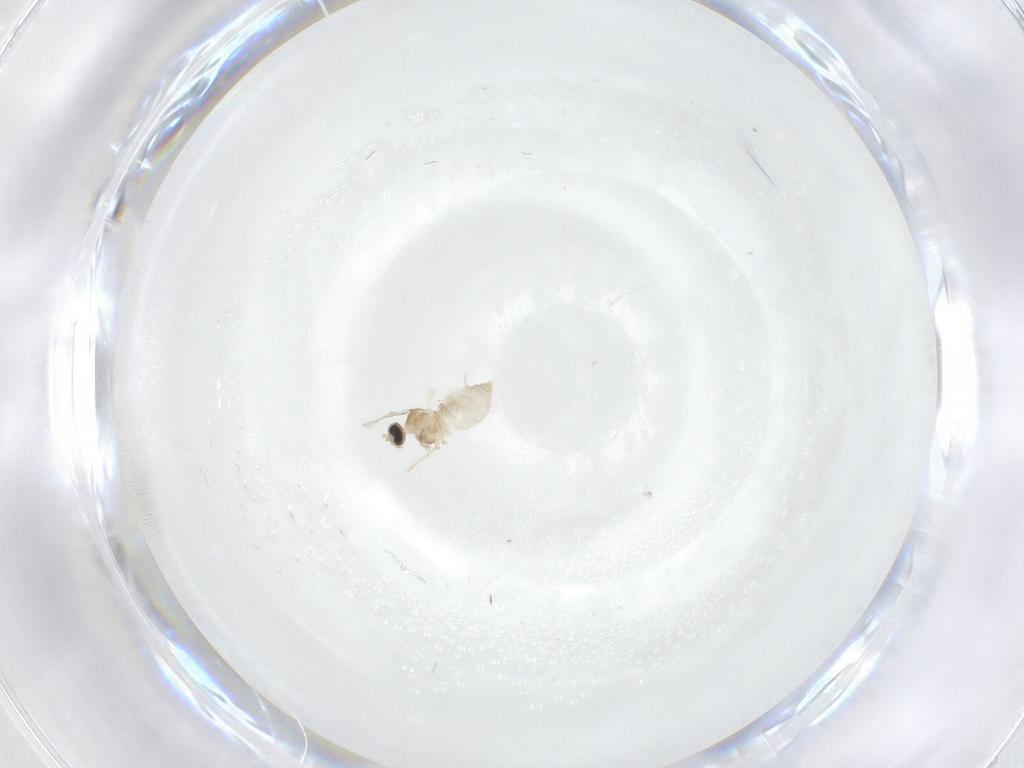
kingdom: Animalia
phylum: Arthropoda
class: Insecta
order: Diptera
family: Cecidomyiidae
